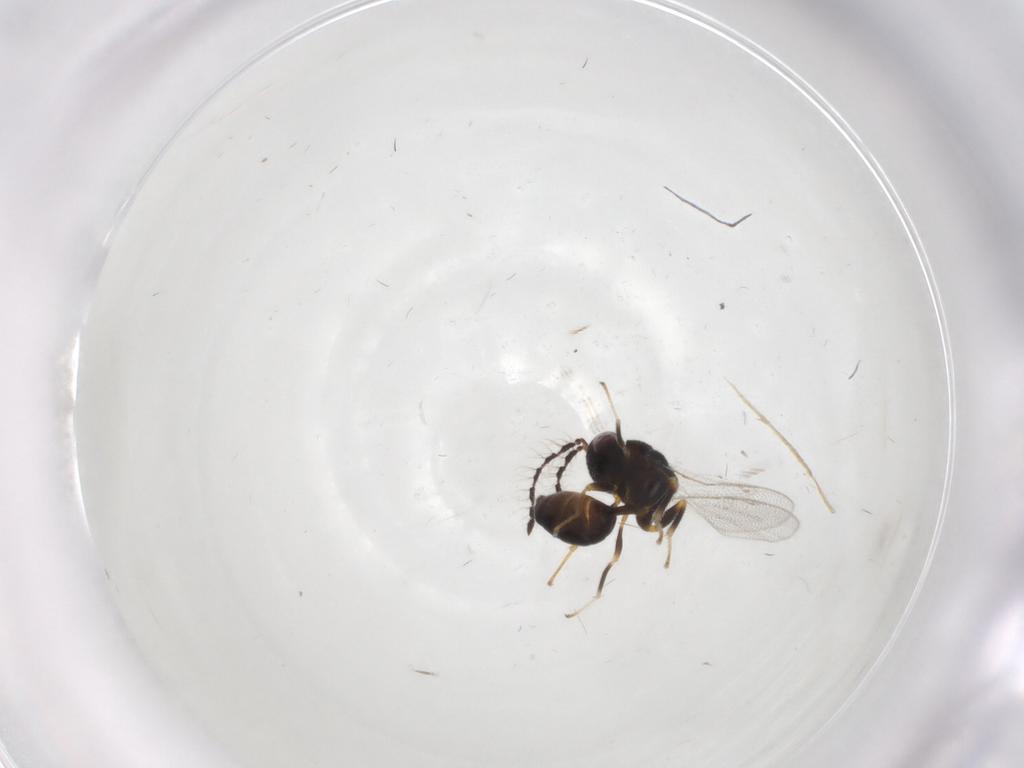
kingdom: Animalia
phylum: Arthropoda
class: Insecta
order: Hymenoptera
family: Eurytomidae
